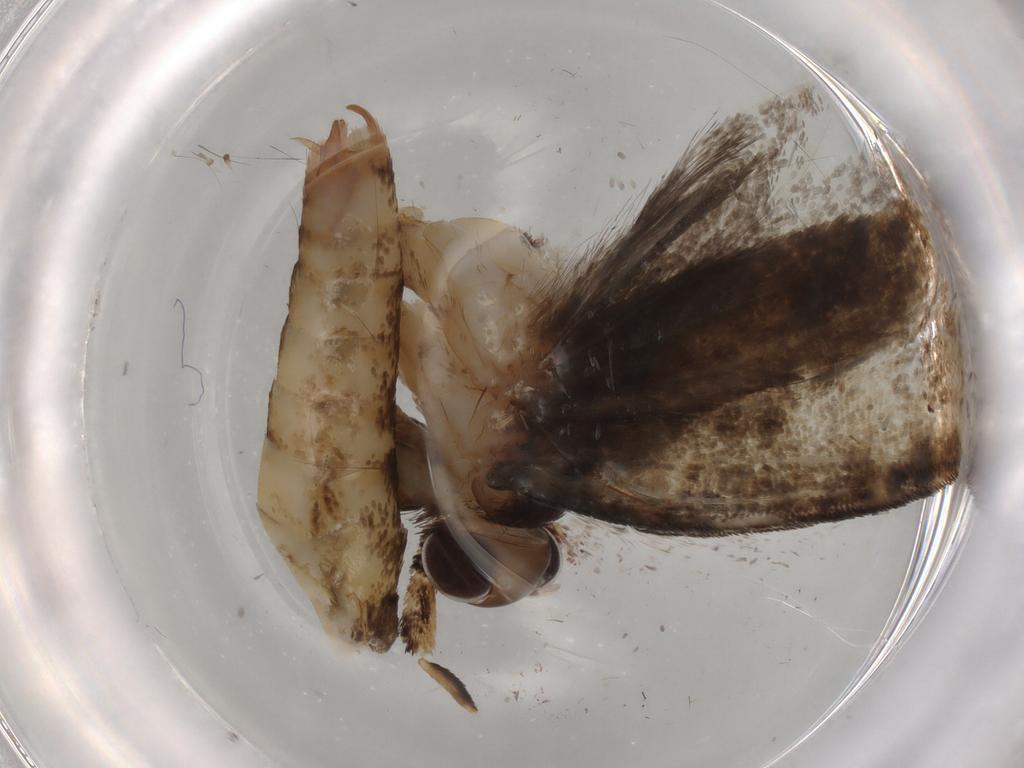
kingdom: Animalia
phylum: Arthropoda
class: Insecta
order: Lepidoptera
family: Tineidae
